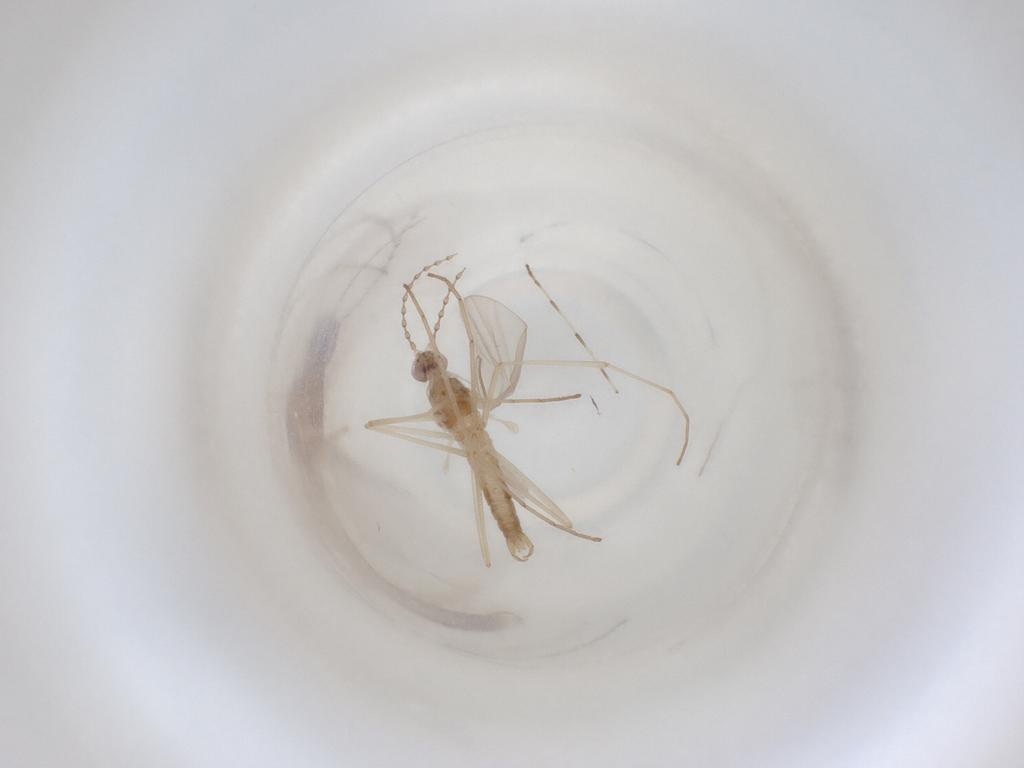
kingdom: Animalia
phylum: Arthropoda
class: Insecta
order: Diptera
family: Cecidomyiidae
